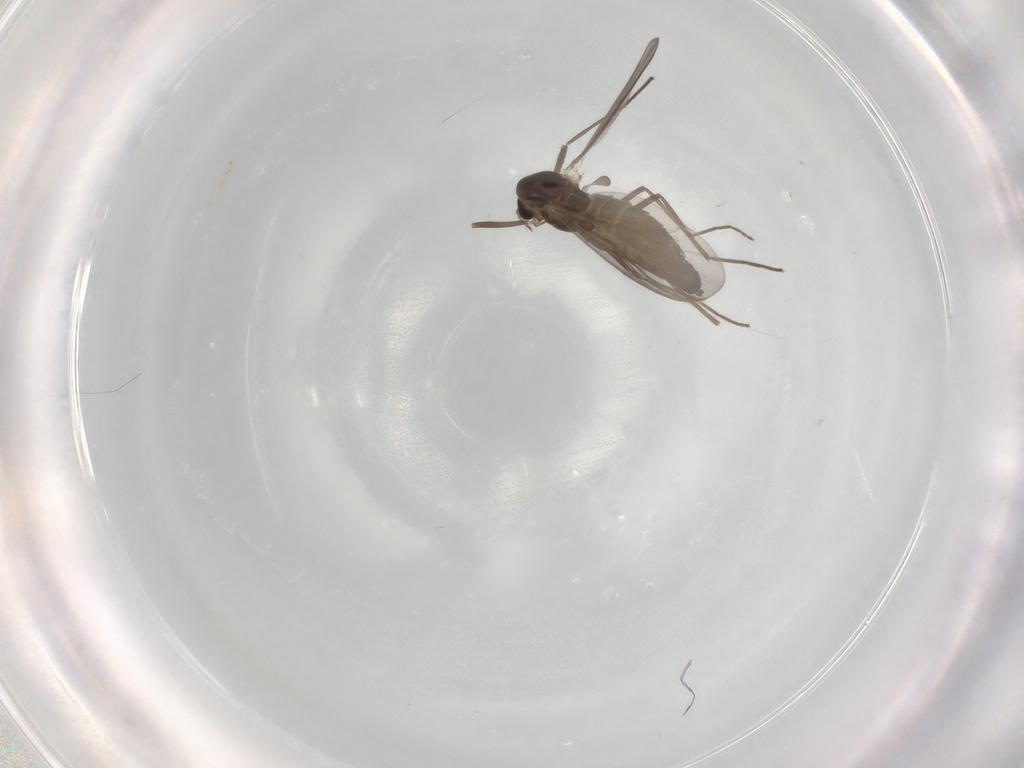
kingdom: Animalia
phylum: Arthropoda
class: Insecta
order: Diptera
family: Chironomidae
